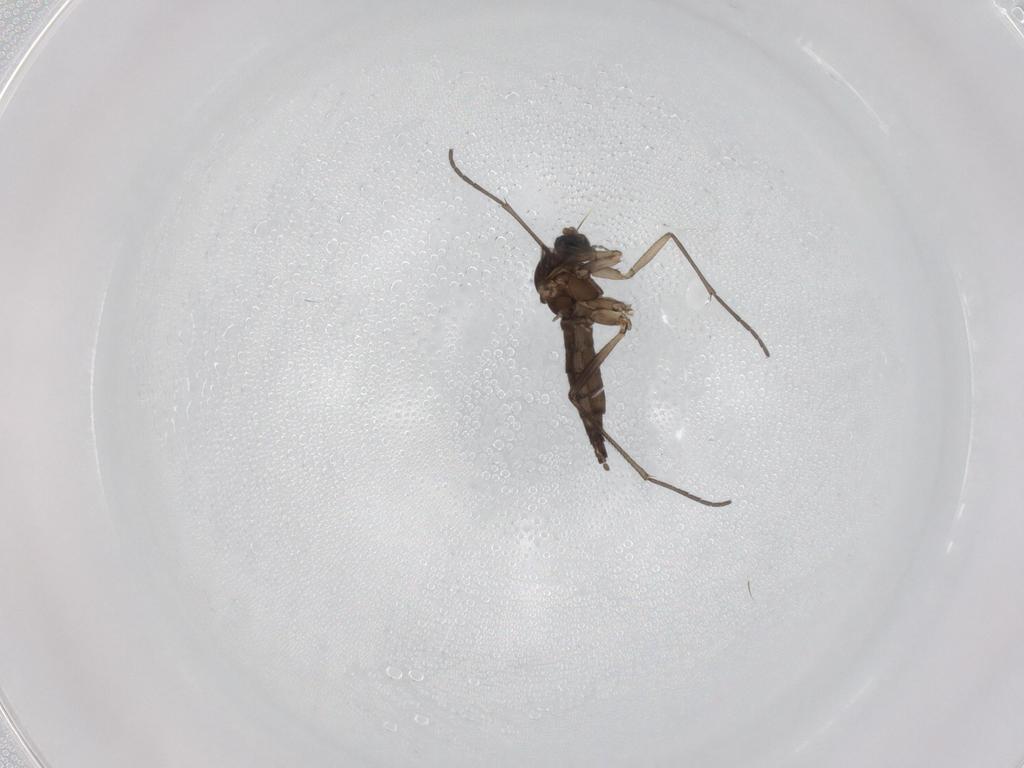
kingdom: Animalia
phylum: Arthropoda
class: Insecta
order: Diptera
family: Sciaridae
